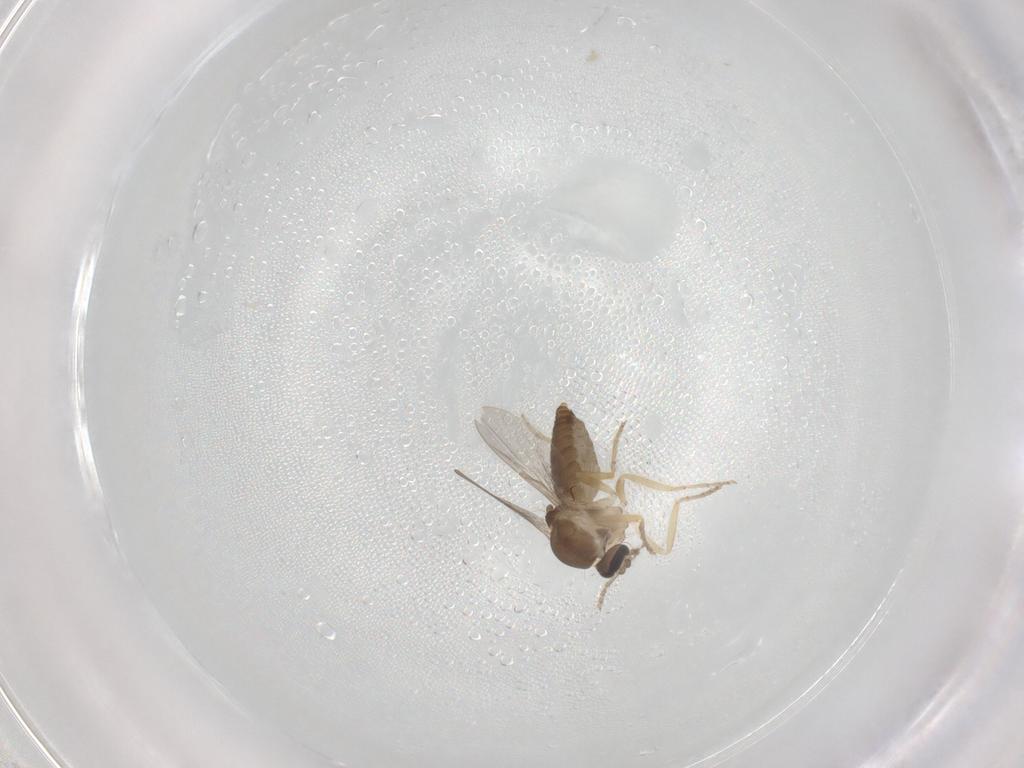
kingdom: Animalia
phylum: Arthropoda
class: Insecta
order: Diptera
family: Ceratopogonidae
